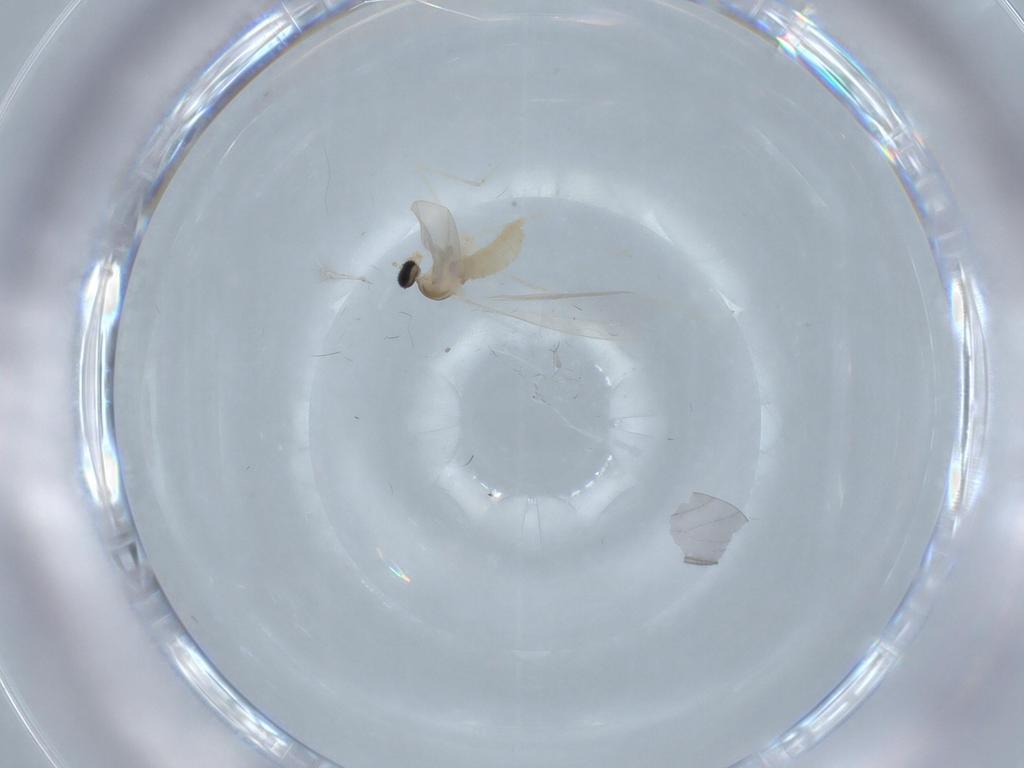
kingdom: Animalia
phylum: Arthropoda
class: Insecta
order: Diptera
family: Cecidomyiidae
